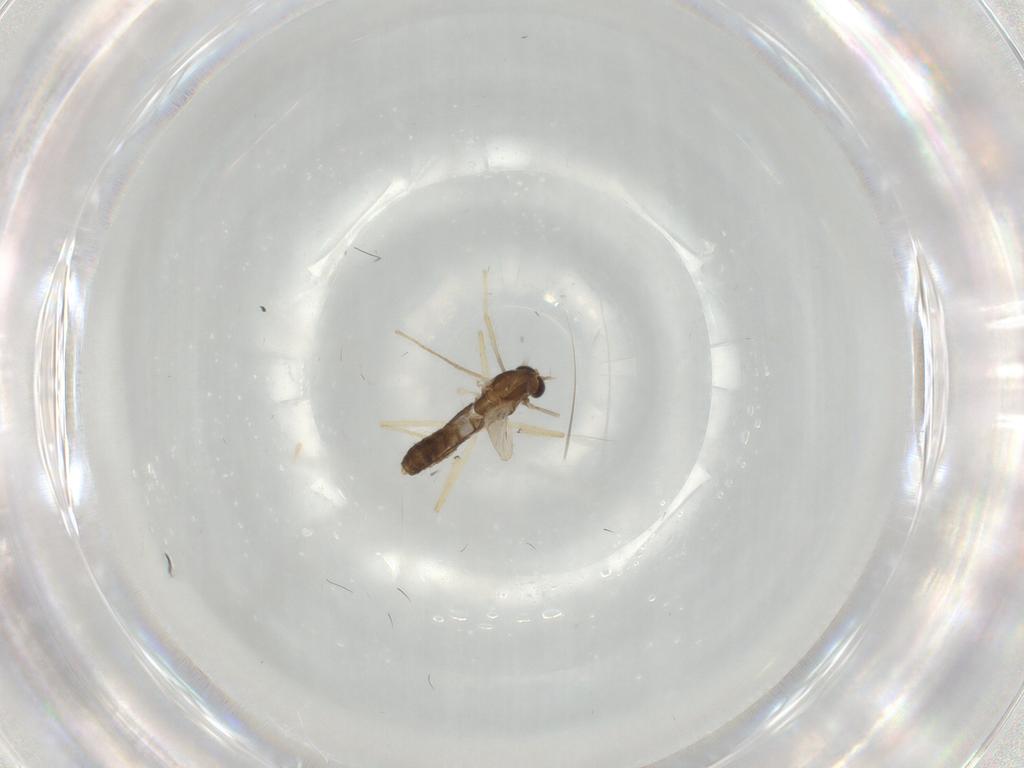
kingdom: Animalia
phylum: Arthropoda
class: Insecta
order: Diptera
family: Chironomidae
